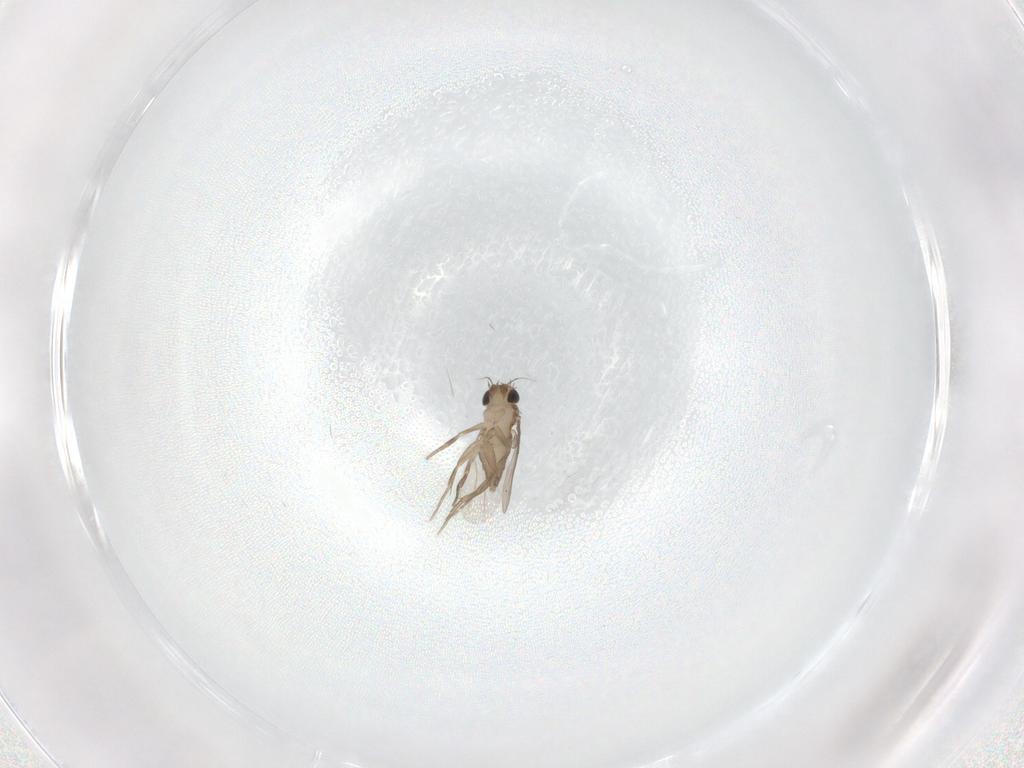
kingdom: Animalia
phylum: Arthropoda
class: Insecta
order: Diptera
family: Phoridae
